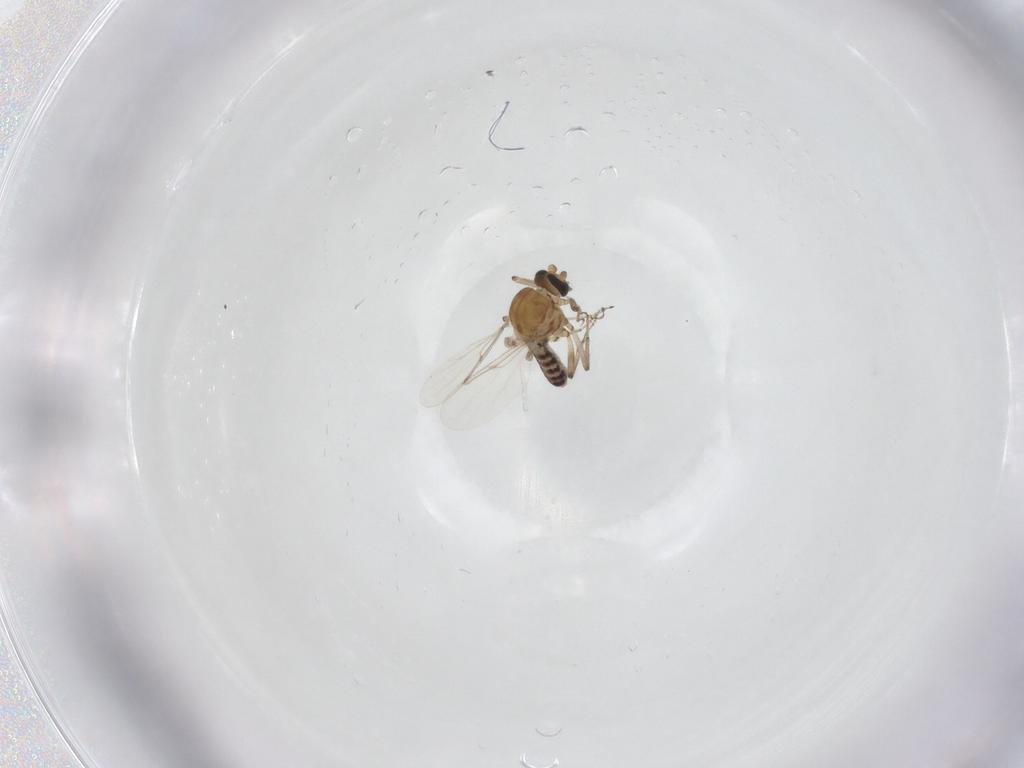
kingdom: Animalia
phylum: Arthropoda
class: Insecta
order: Diptera
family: Ceratopogonidae
